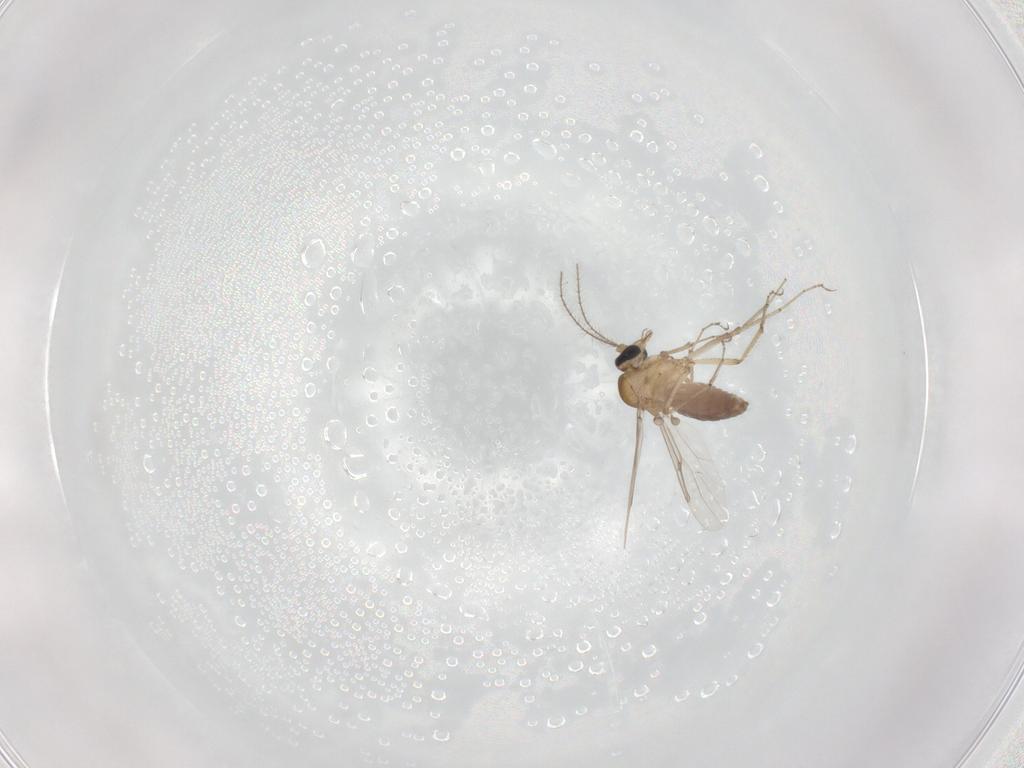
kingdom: Animalia
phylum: Arthropoda
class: Insecta
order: Diptera
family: Ceratopogonidae
